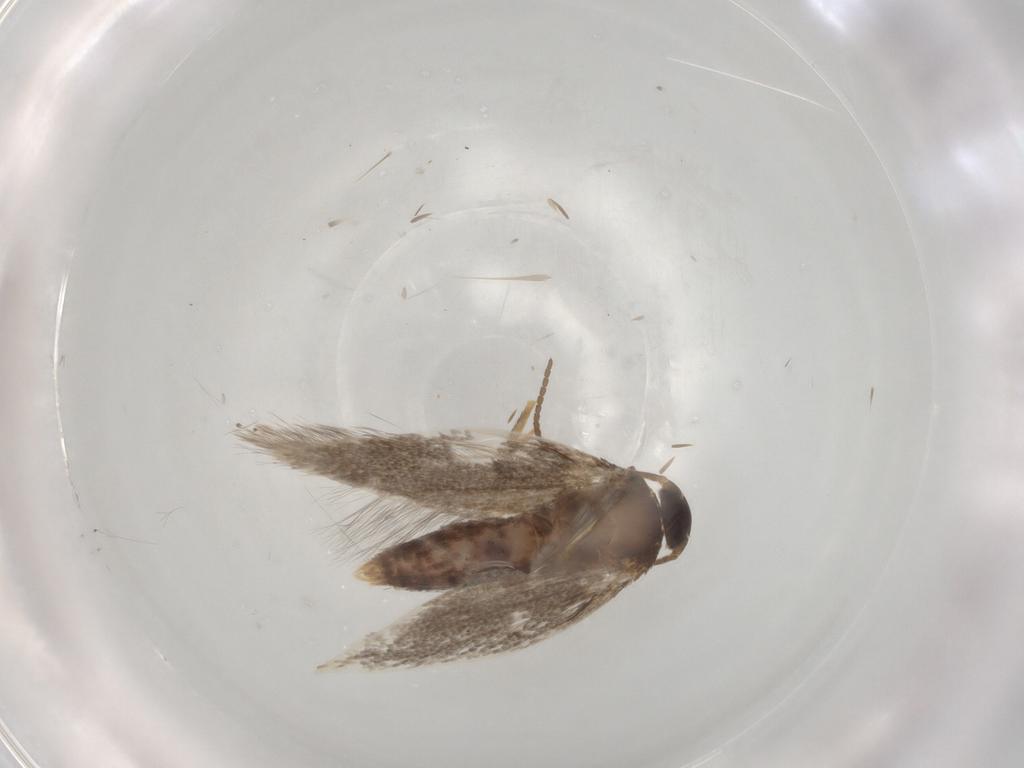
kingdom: Animalia
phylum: Arthropoda
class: Insecta
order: Lepidoptera
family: Elachistidae
